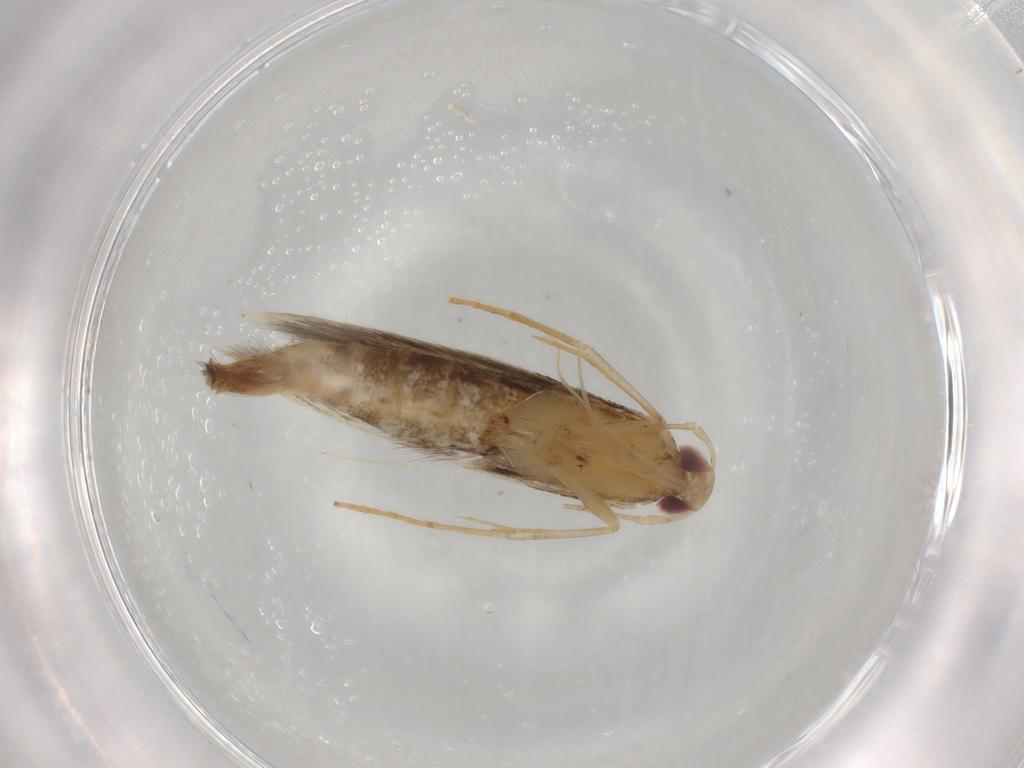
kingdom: Animalia
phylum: Arthropoda
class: Insecta
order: Lepidoptera
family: Cosmopterigidae
